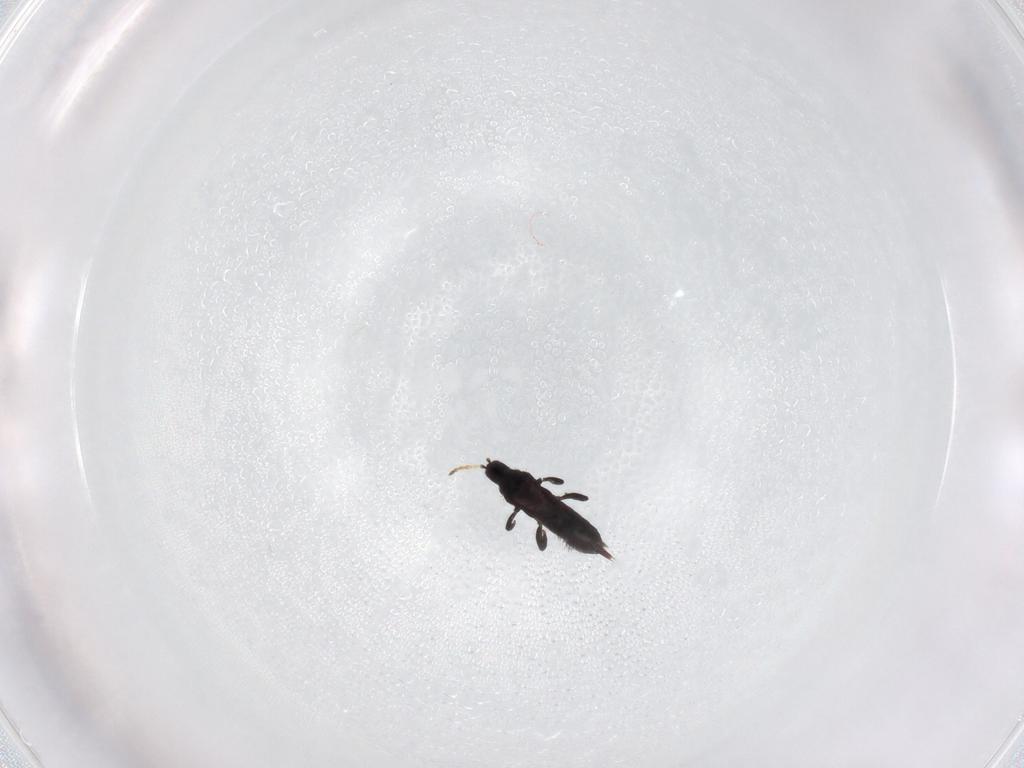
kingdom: Animalia
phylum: Arthropoda
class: Insecta
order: Thysanoptera
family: Phlaeothripidae
